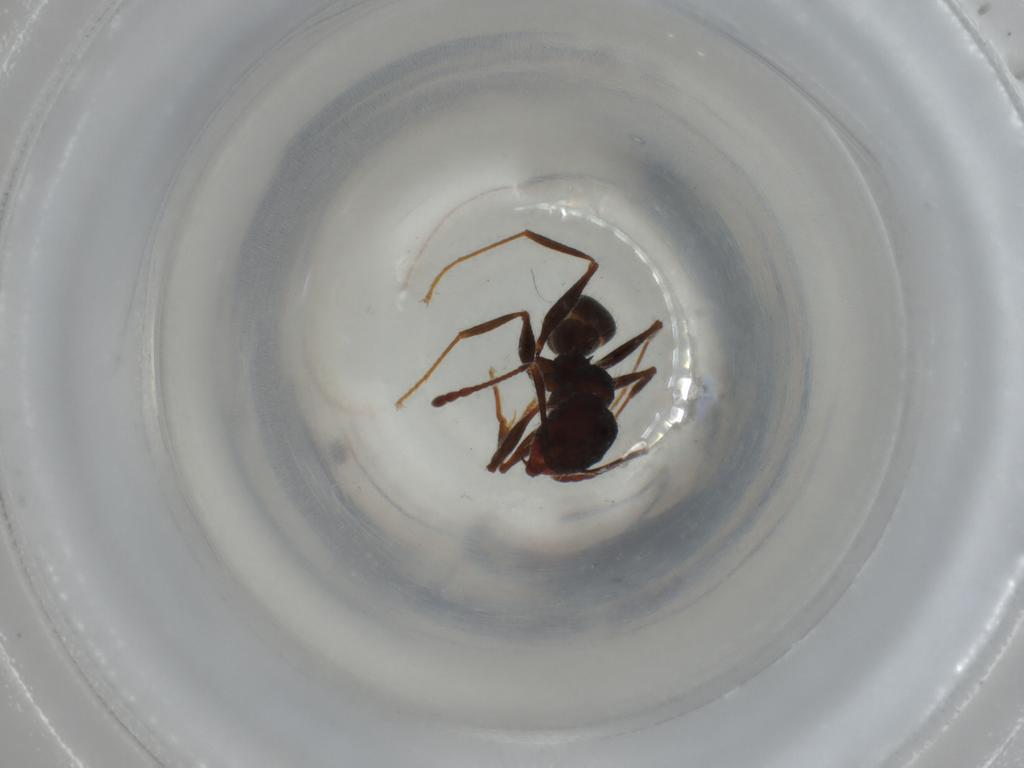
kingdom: Animalia
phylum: Arthropoda
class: Insecta
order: Hymenoptera
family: Formicidae
